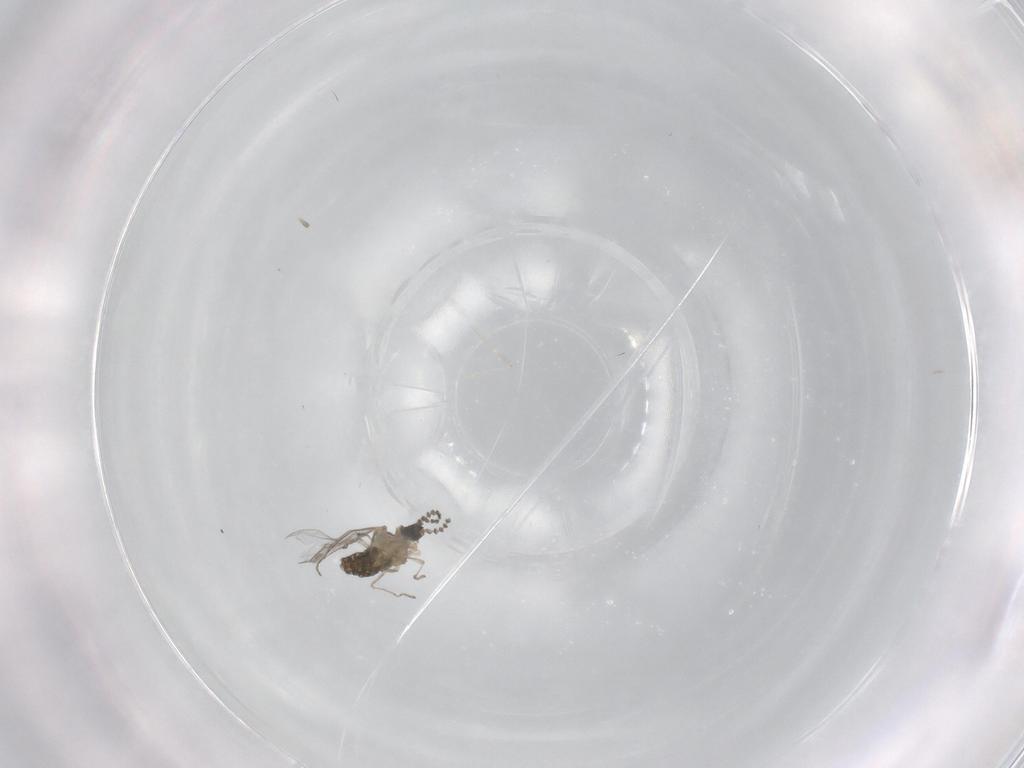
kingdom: Animalia
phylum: Arthropoda
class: Insecta
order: Diptera
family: Cecidomyiidae
